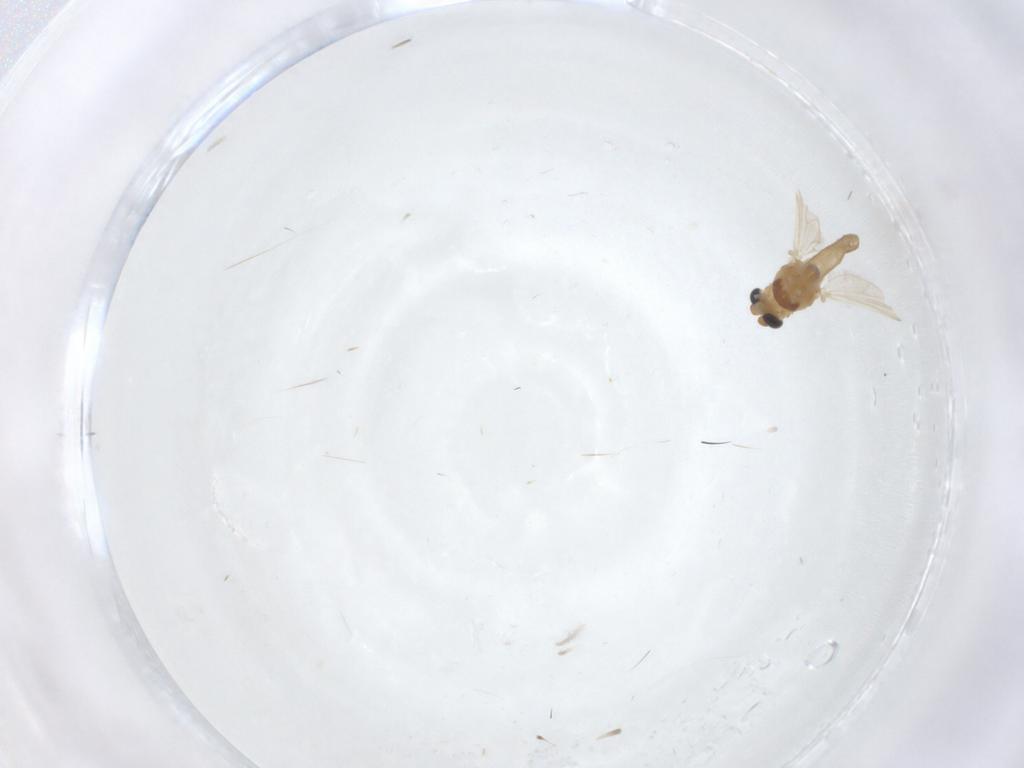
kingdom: Animalia
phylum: Arthropoda
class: Insecta
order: Diptera
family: Chironomidae
